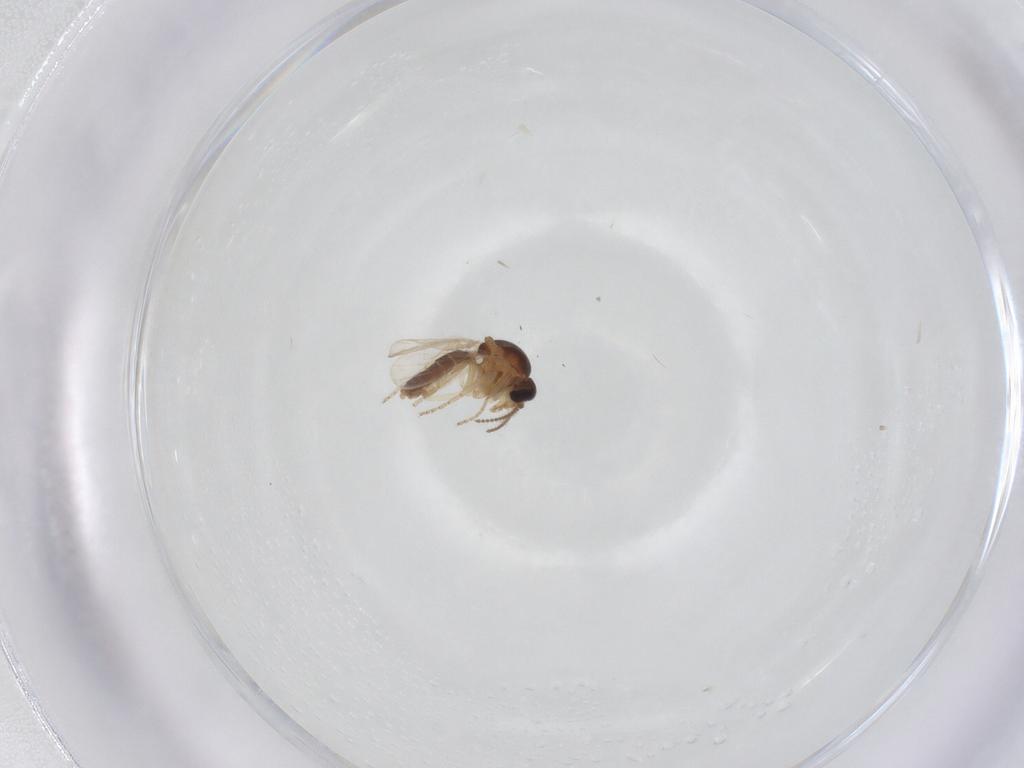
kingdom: Animalia
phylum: Arthropoda
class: Insecta
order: Diptera
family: Ceratopogonidae
